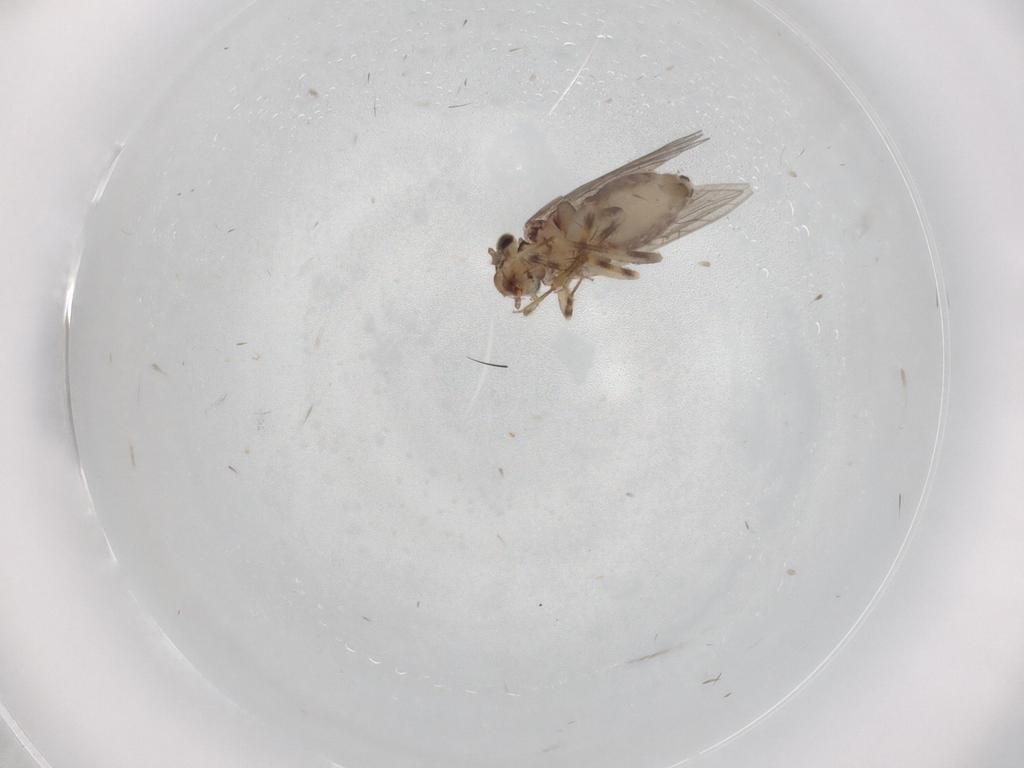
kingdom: Animalia
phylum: Arthropoda
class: Insecta
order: Psocodea
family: Lepidopsocidae
